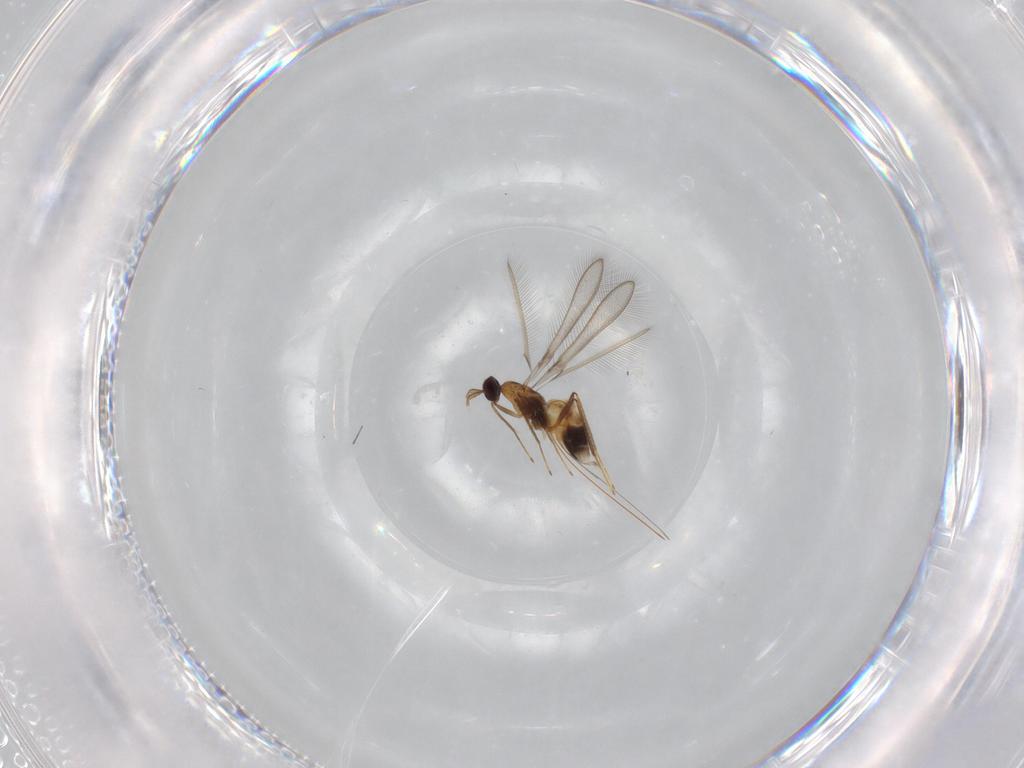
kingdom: Animalia
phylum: Arthropoda
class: Insecta
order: Hymenoptera
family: Mymaridae
